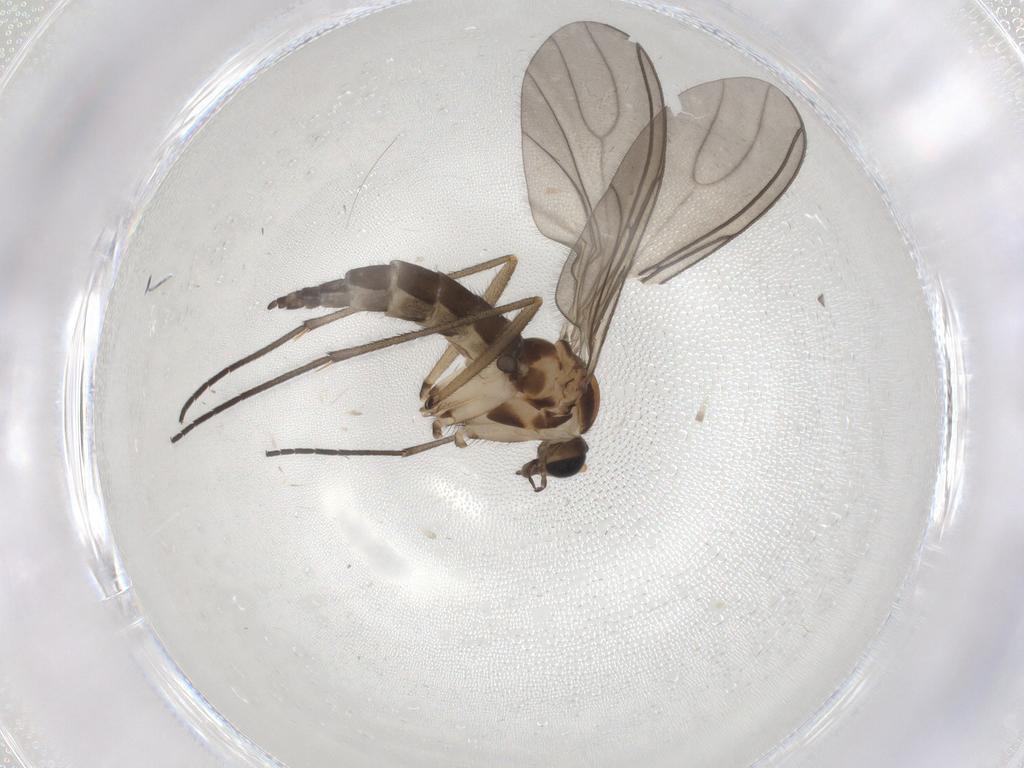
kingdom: Animalia
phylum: Arthropoda
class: Insecta
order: Diptera
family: Sciaridae
